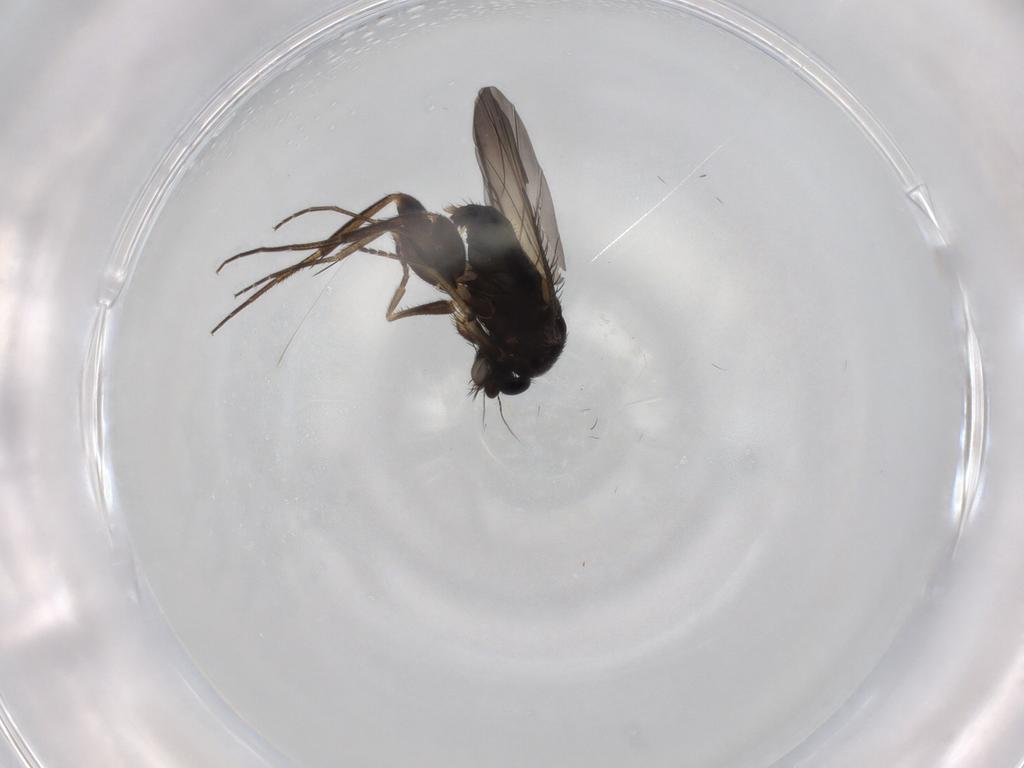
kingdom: Animalia
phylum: Arthropoda
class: Insecta
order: Diptera
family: Phoridae
